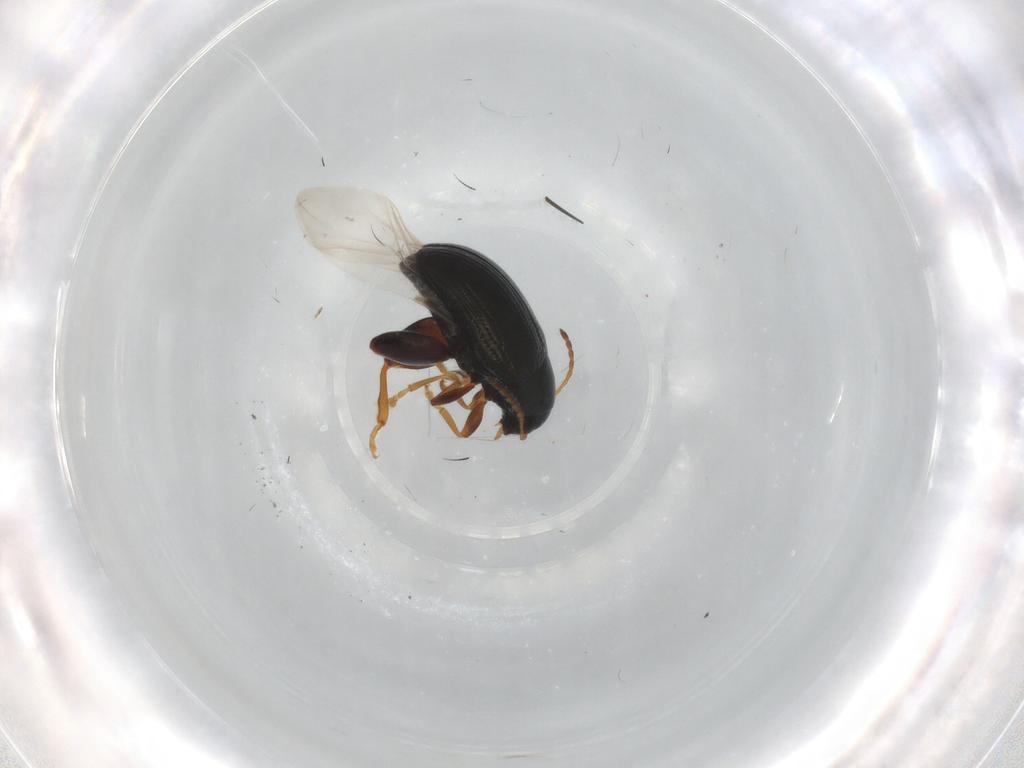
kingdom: Animalia
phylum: Arthropoda
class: Insecta
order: Coleoptera
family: Chrysomelidae
